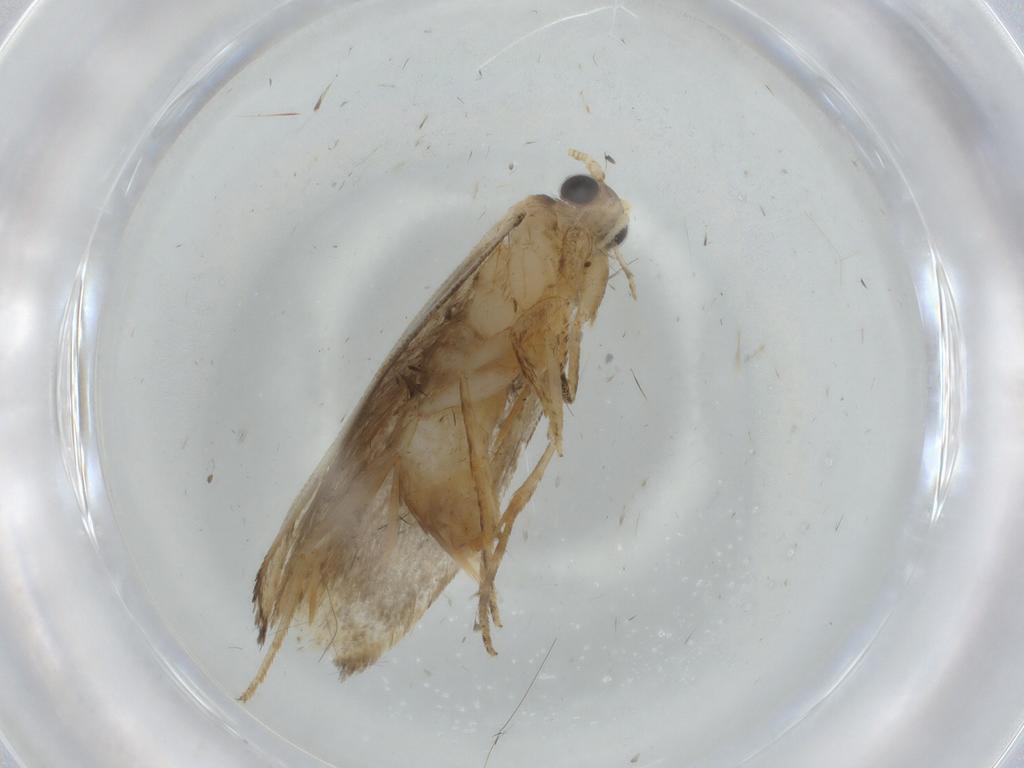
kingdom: Animalia
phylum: Arthropoda
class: Insecta
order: Lepidoptera
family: Tineidae
